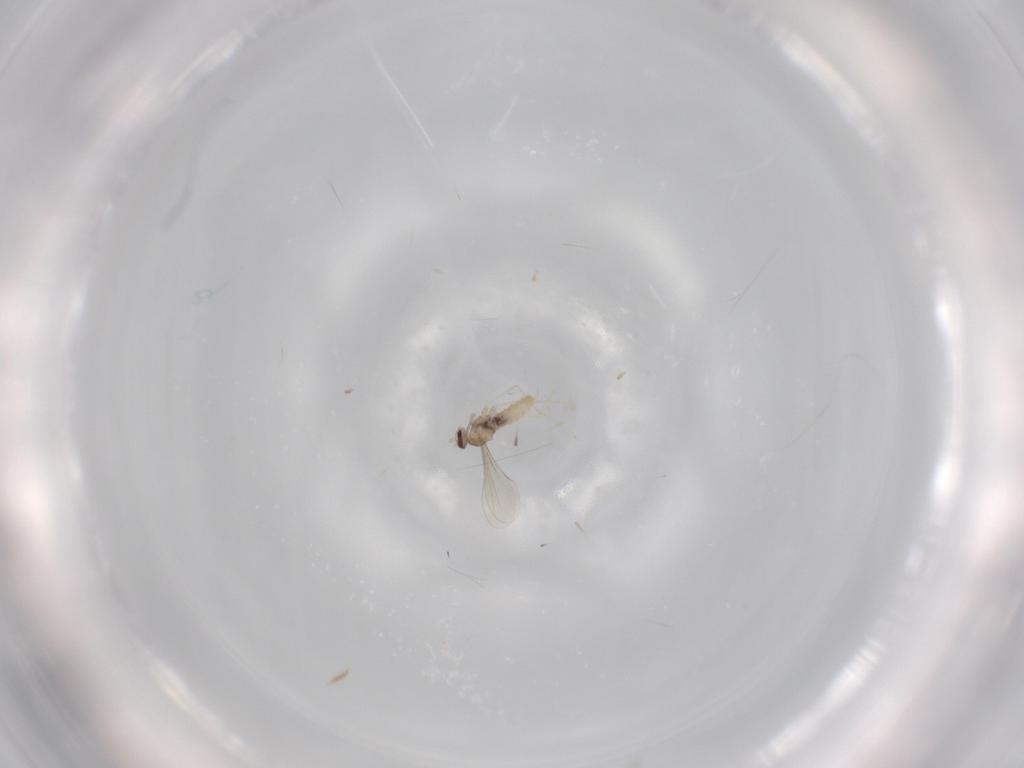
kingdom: Animalia
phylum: Arthropoda
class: Insecta
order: Diptera
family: Cecidomyiidae
